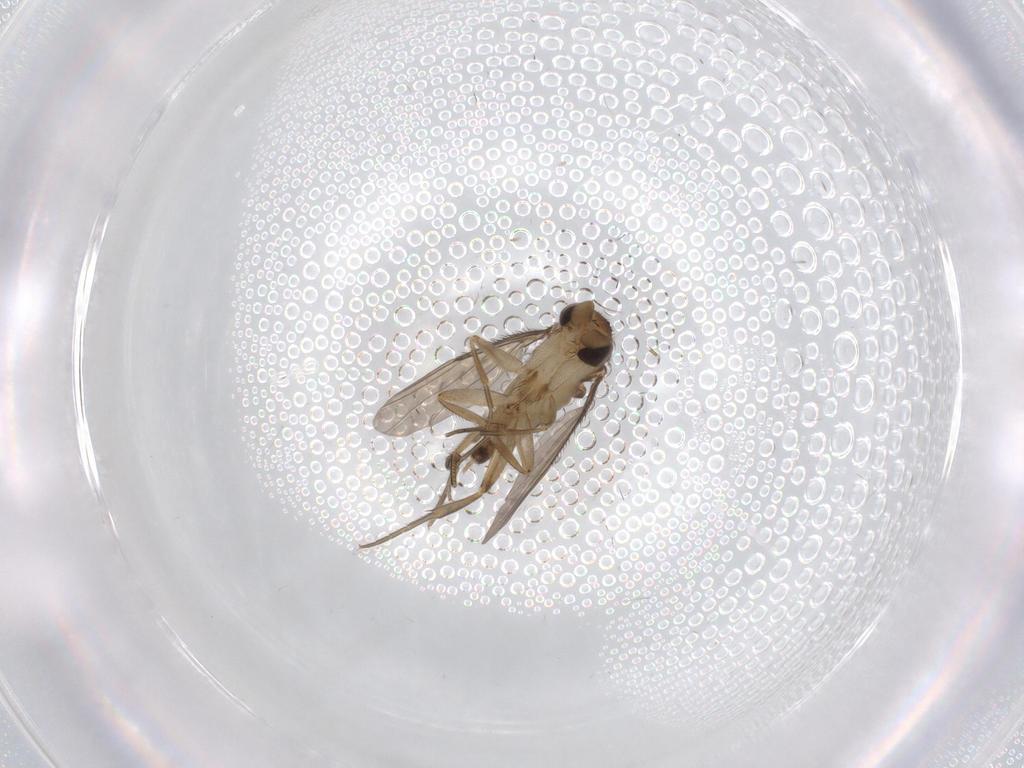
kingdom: Animalia
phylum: Arthropoda
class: Insecta
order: Diptera
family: Phoridae
